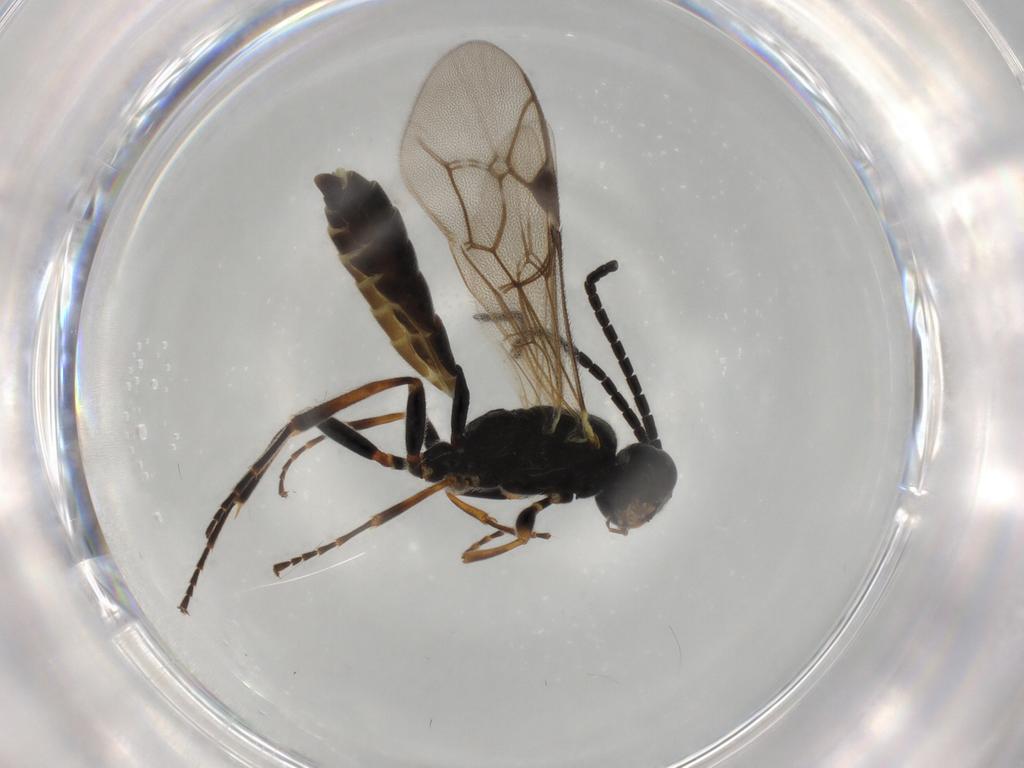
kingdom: Animalia
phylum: Arthropoda
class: Insecta
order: Hymenoptera
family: Ichneumonidae
